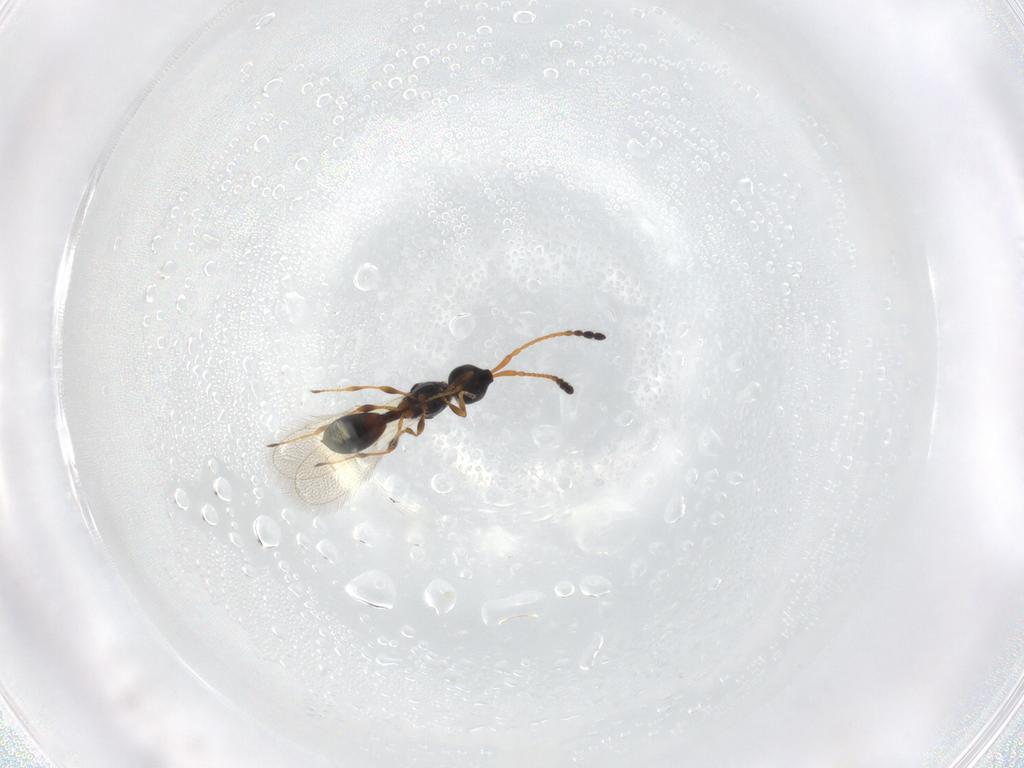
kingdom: Animalia
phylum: Arthropoda
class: Insecta
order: Hymenoptera
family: Diapriidae
